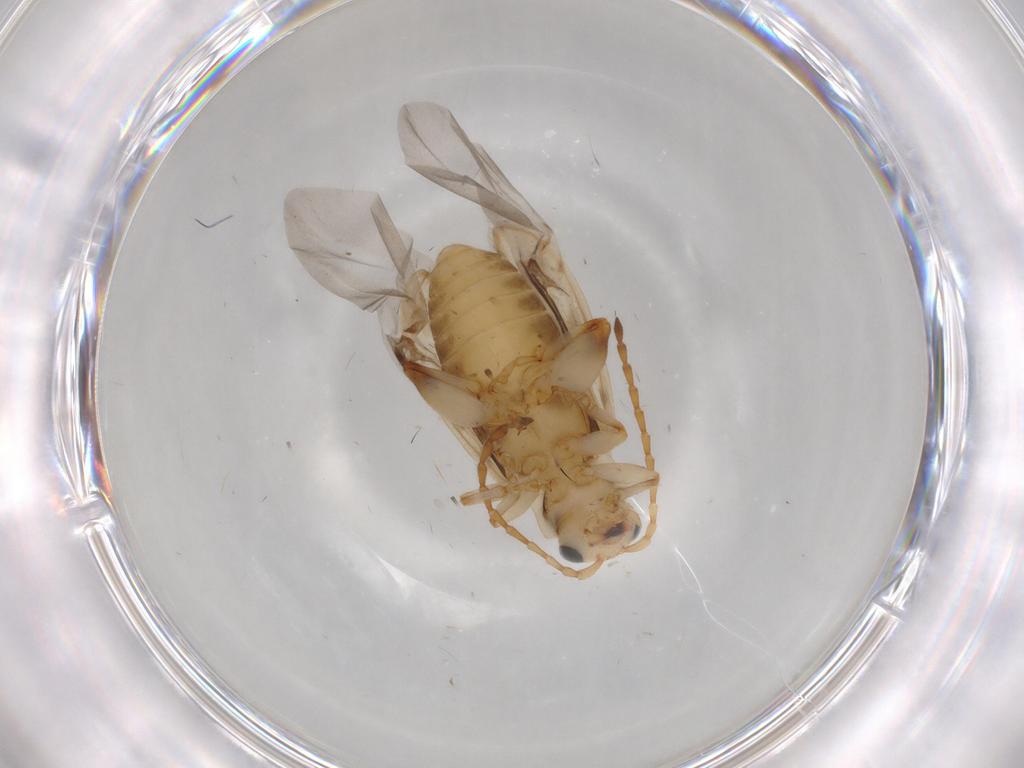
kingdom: Animalia
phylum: Arthropoda
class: Insecta
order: Coleoptera
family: Chrysomelidae
